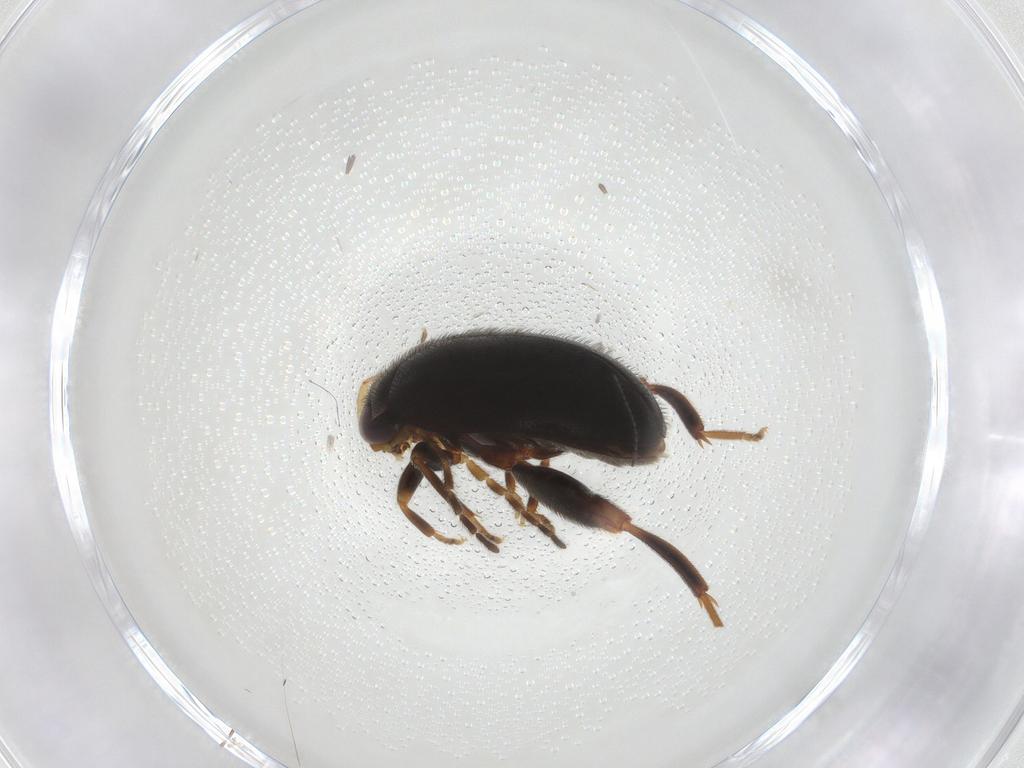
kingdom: Animalia
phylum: Arthropoda
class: Insecta
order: Coleoptera
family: Scirtidae
